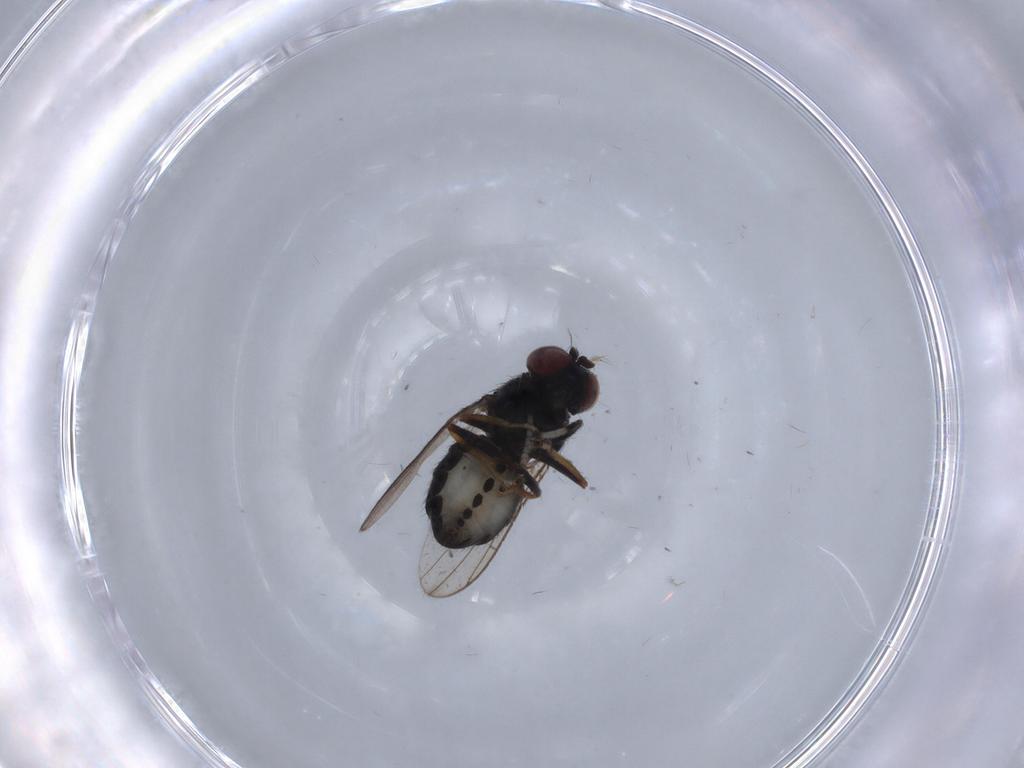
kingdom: Animalia
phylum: Arthropoda
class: Insecta
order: Diptera
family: Ephydridae
